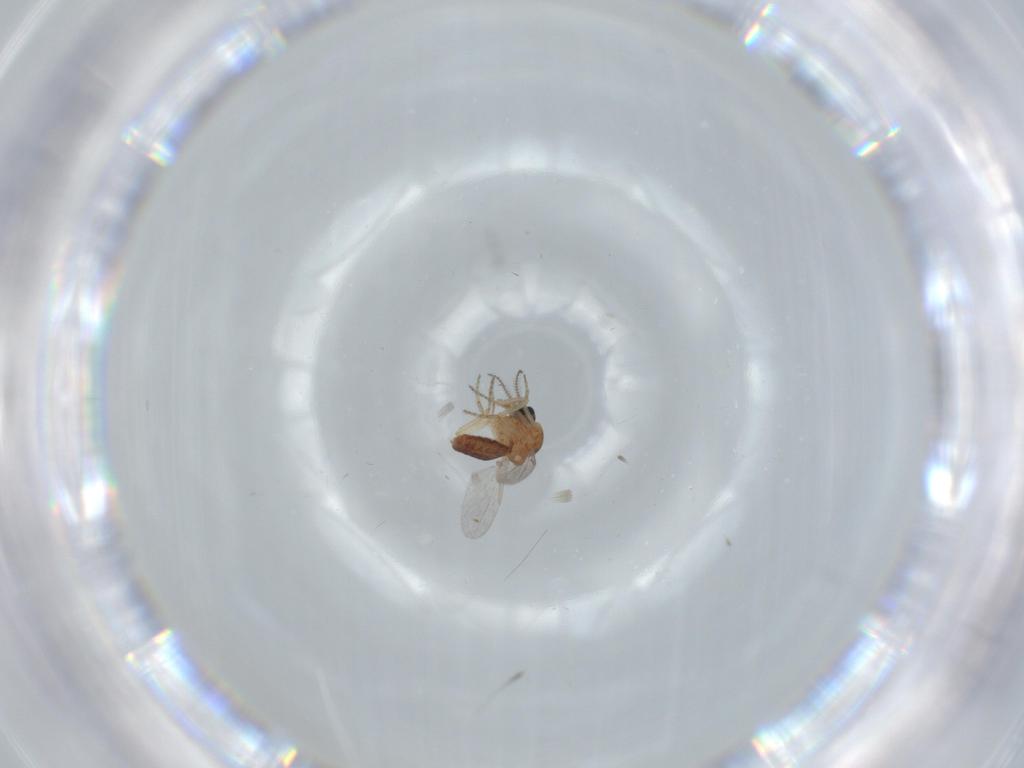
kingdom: Animalia
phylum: Arthropoda
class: Insecta
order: Diptera
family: Ceratopogonidae
